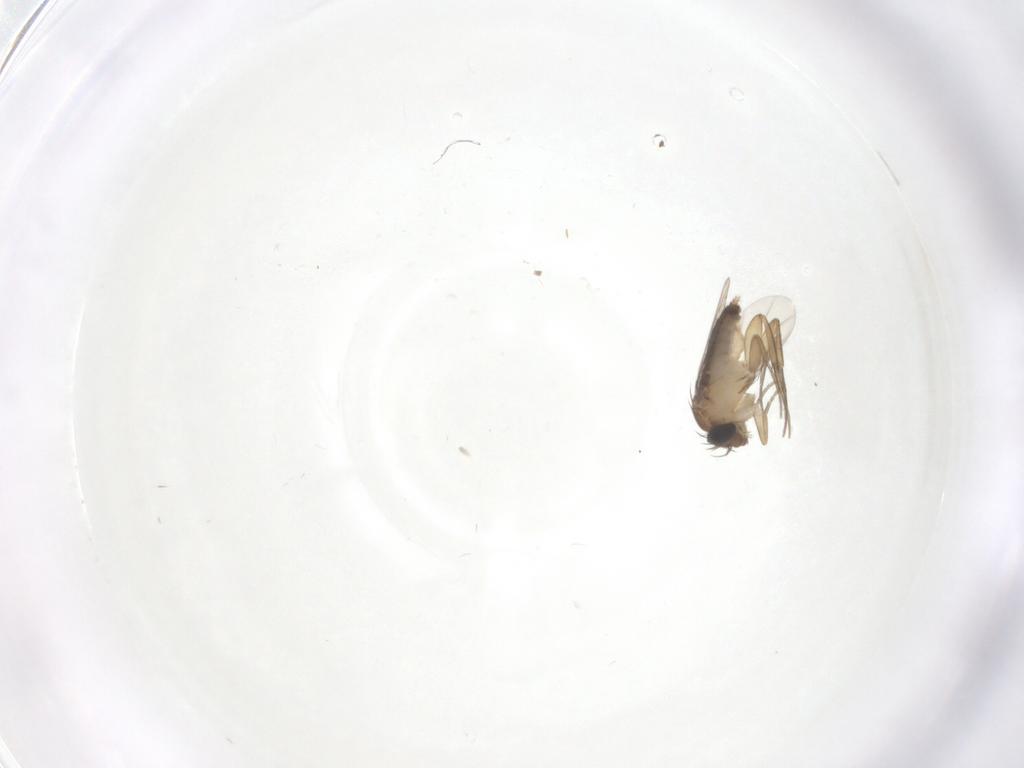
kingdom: Animalia
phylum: Arthropoda
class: Insecta
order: Diptera
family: Phoridae
